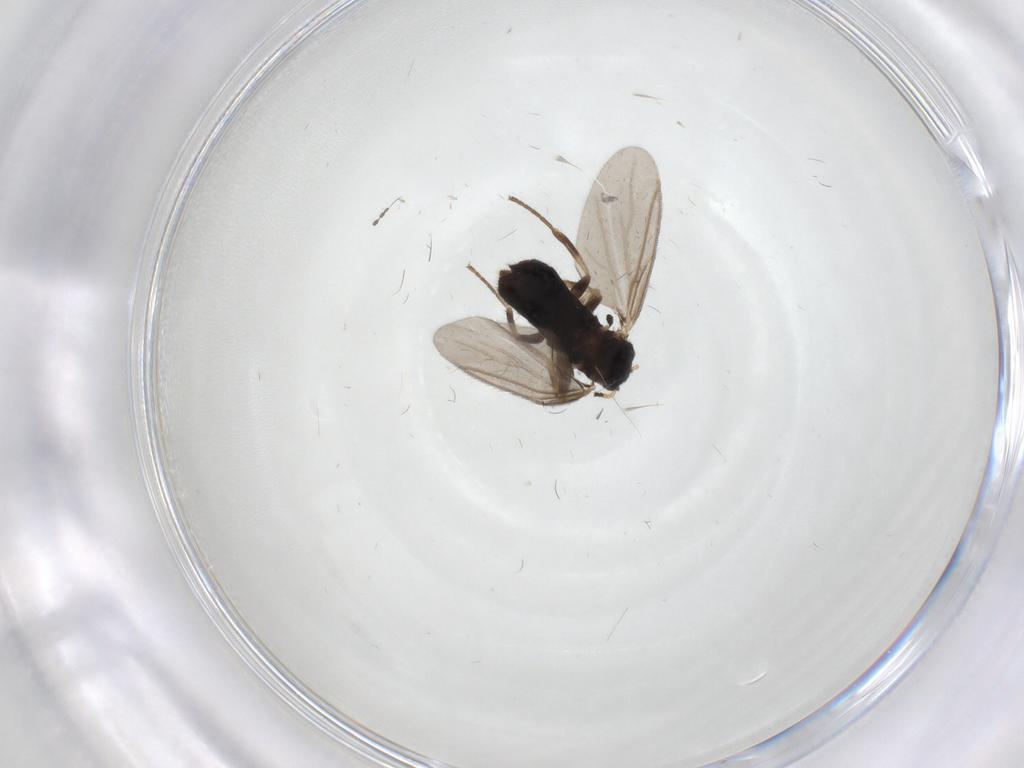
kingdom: Animalia
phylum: Arthropoda
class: Insecta
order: Diptera
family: Scatopsidae
